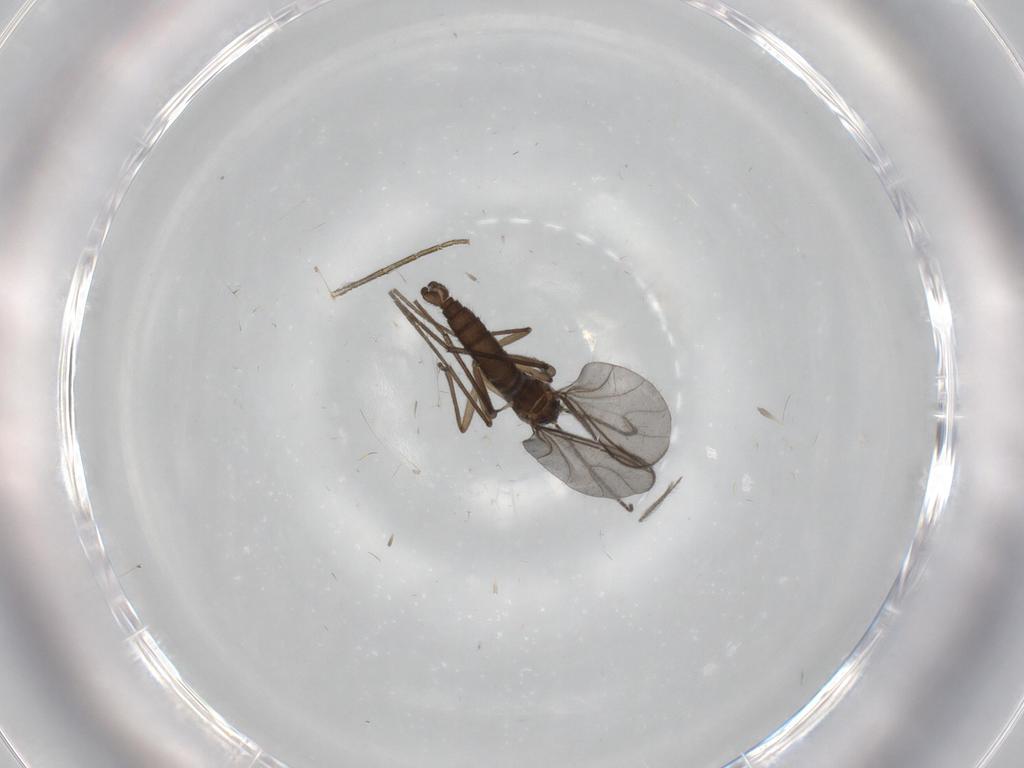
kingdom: Animalia
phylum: Arthropoda
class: Insecta
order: Diptera
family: Sciaridae
